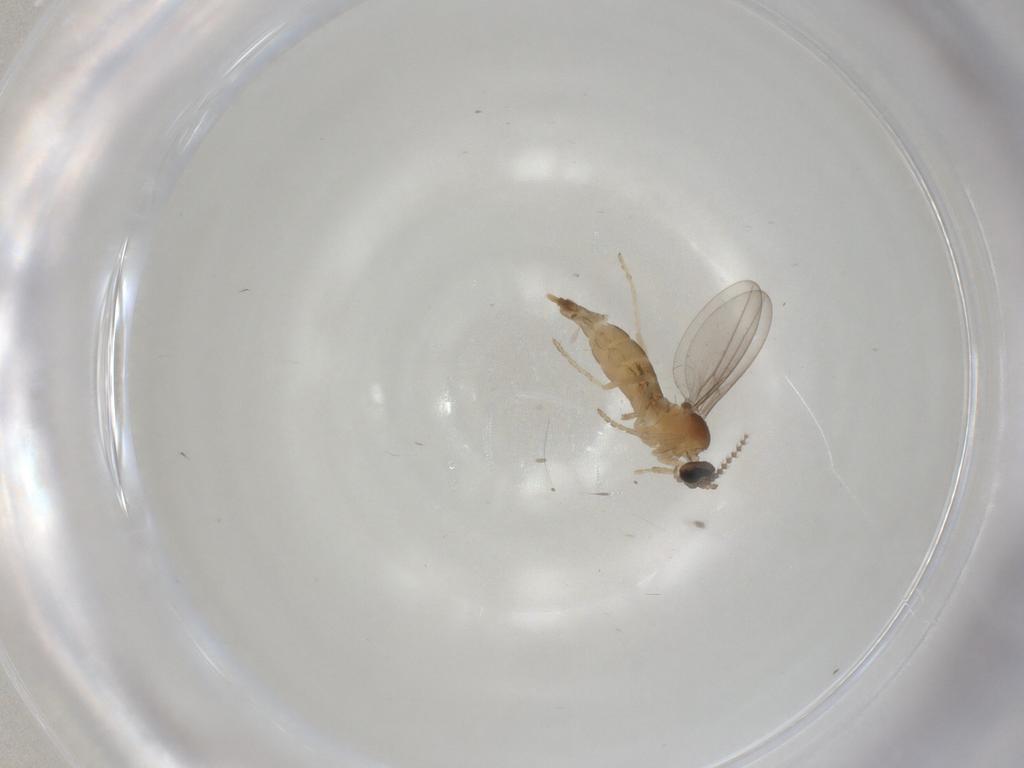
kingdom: Animalia
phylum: Arthropoda
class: Insecta
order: Diptera
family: Cecidomyiidae
